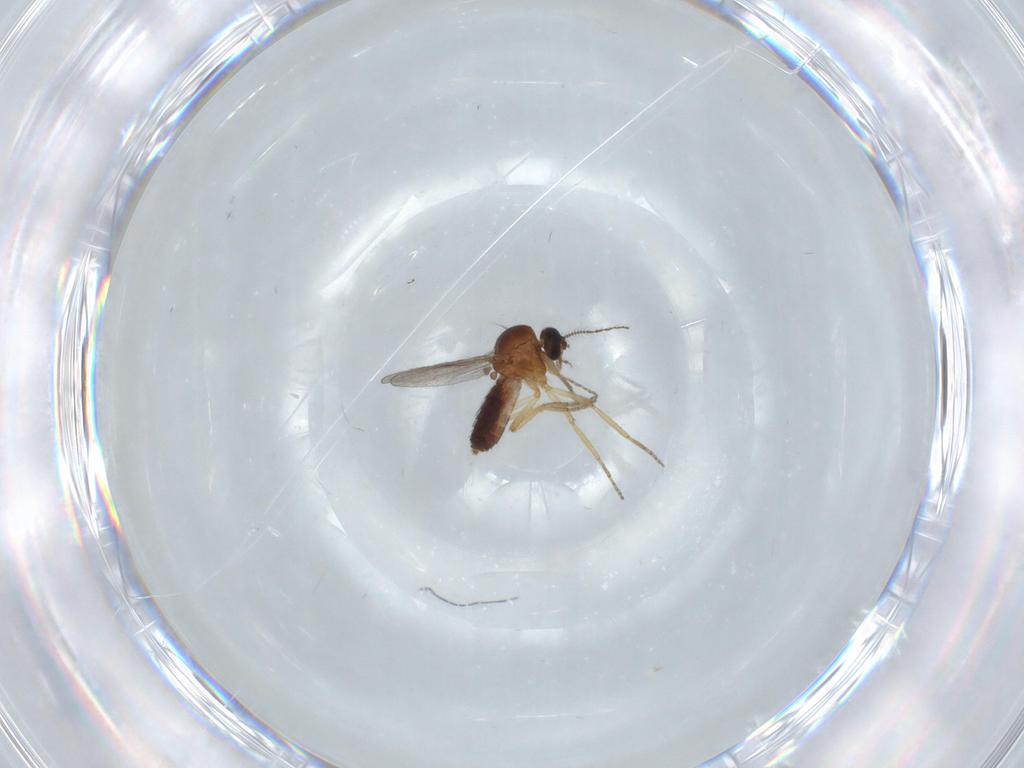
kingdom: Animalia
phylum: Arthropoda
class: Insecta
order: Diptera
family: Ceratopogonidae
